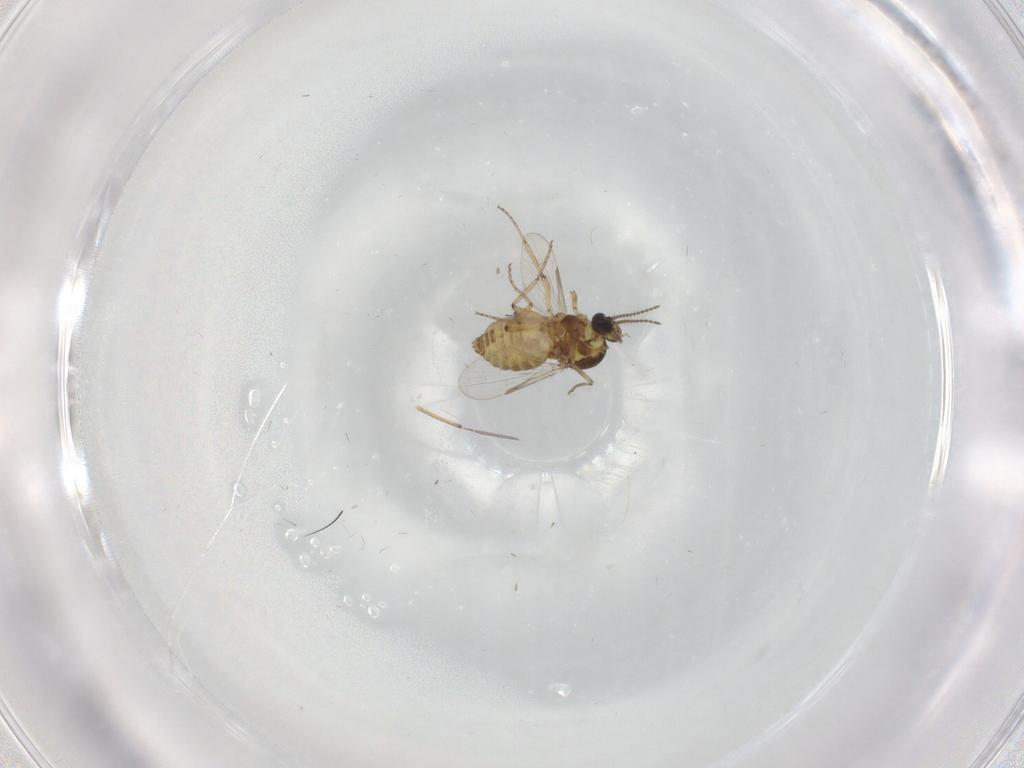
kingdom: Animalia
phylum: Arthropoda
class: Insecta
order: Diptera
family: Ceratopogonidae
